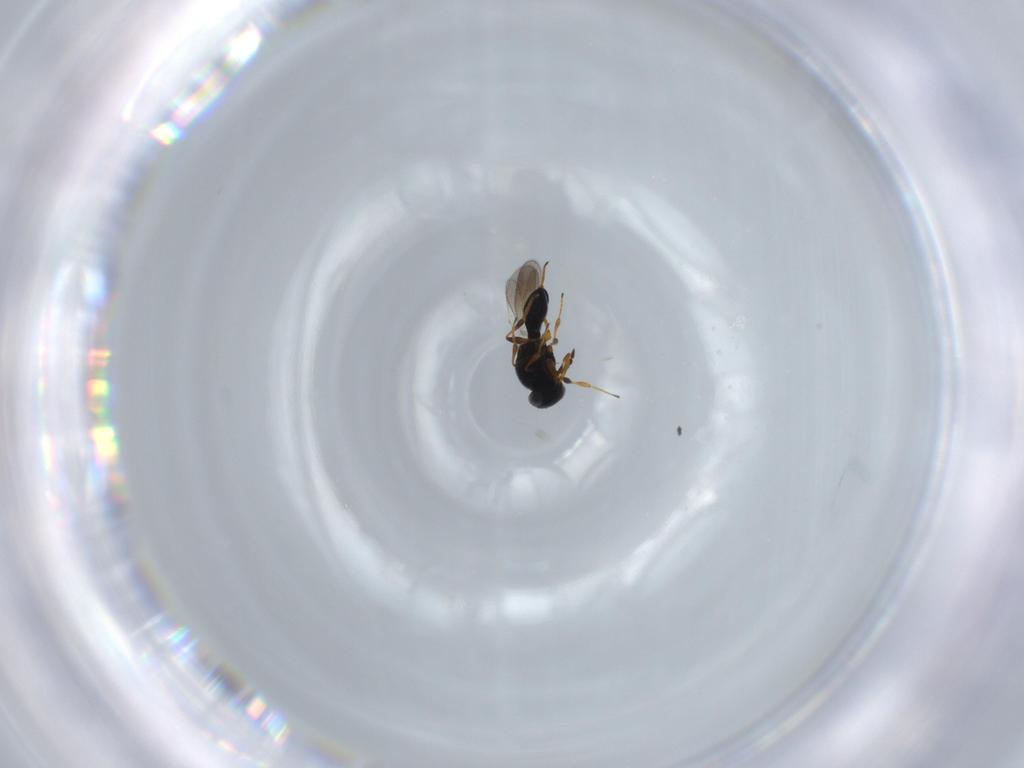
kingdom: Animalia
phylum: Arthropoda
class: Insecta
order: Hymenoptera
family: Platygastridae
